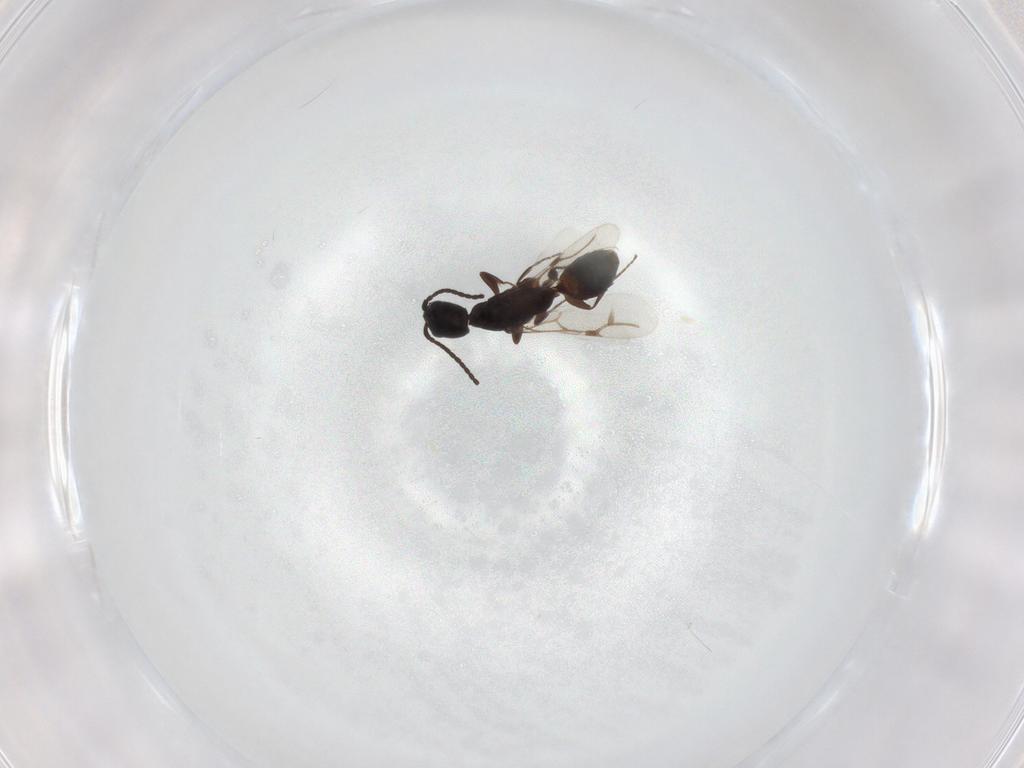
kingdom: Animalia
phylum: Arthropoda
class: Insecta
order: Hymenoptera
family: Bethylidae
